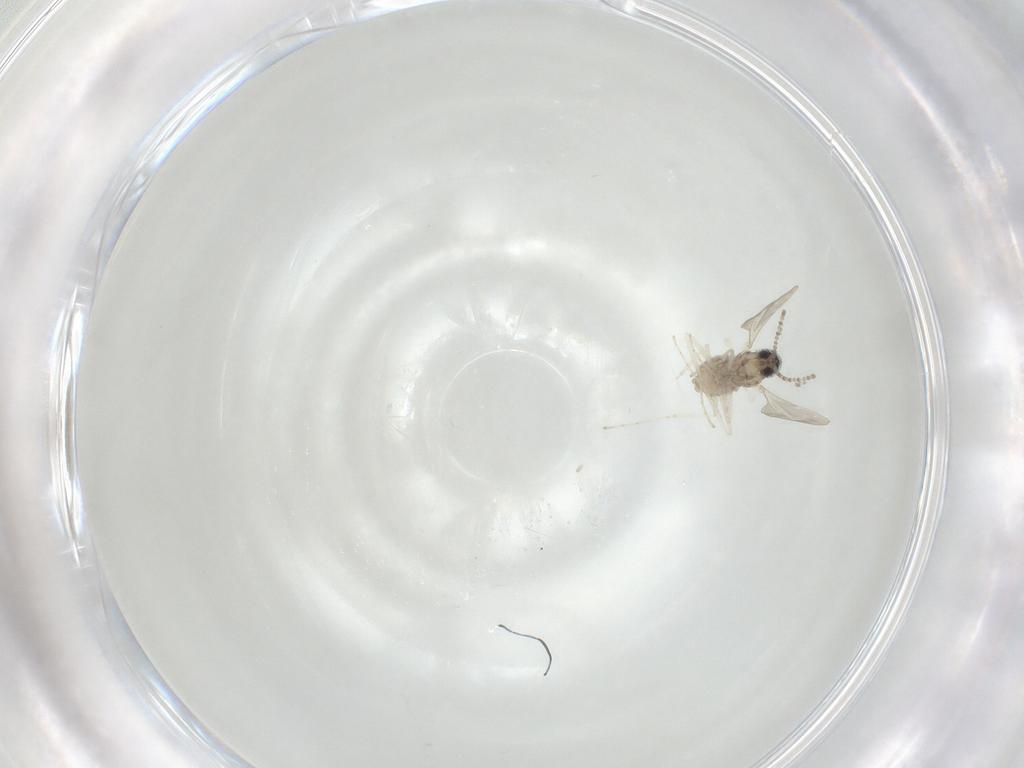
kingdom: Animalia
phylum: Arthropoda
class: Insecta
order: Diptera
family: Cecidomyiidae
